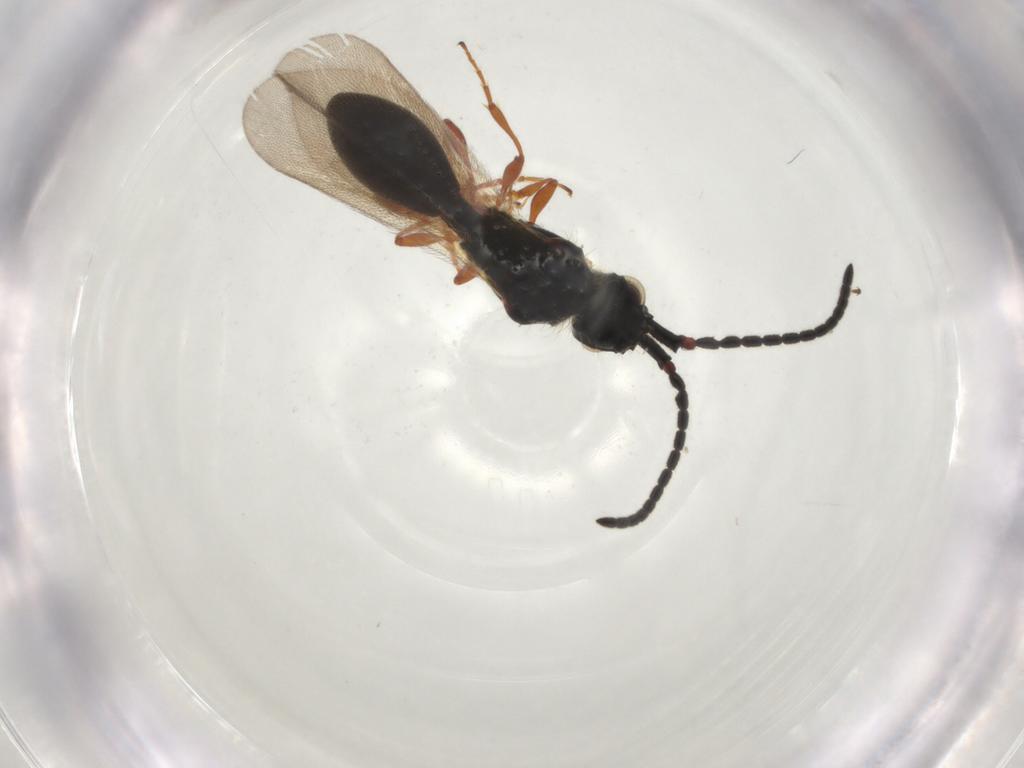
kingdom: Animalia
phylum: Arthropoda
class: Insecta
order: Hymenoptera
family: Diapriidae
